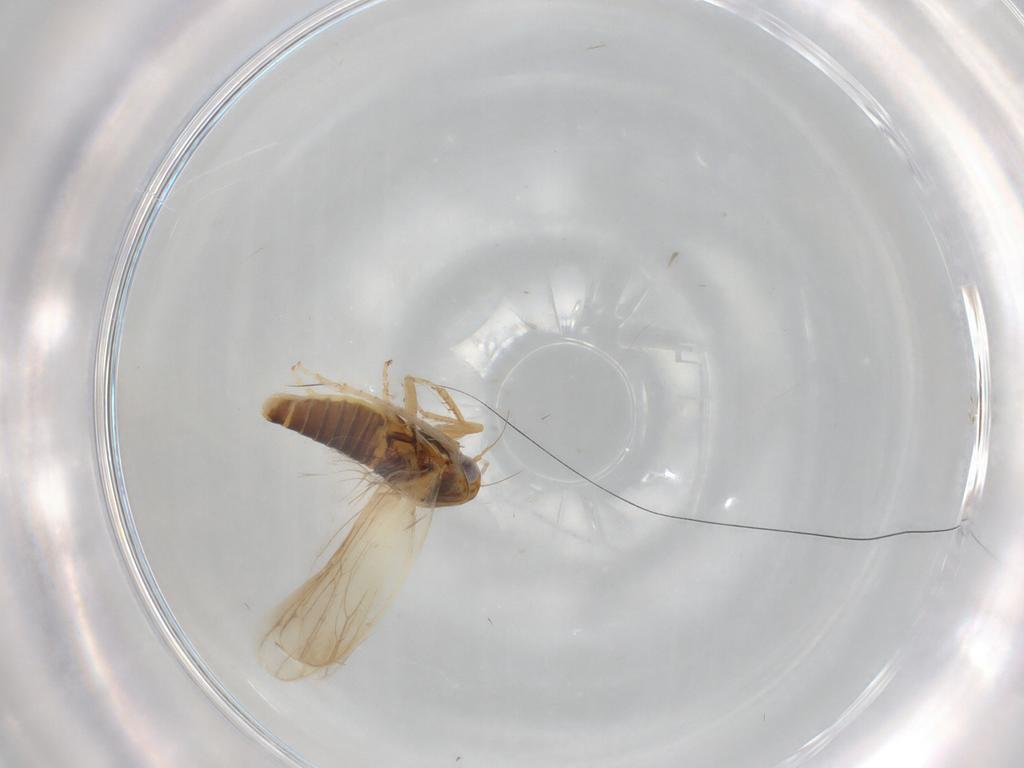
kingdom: Animalia
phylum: Arthropoda
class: Insecta
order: Hemiptera
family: Cicadellidae
